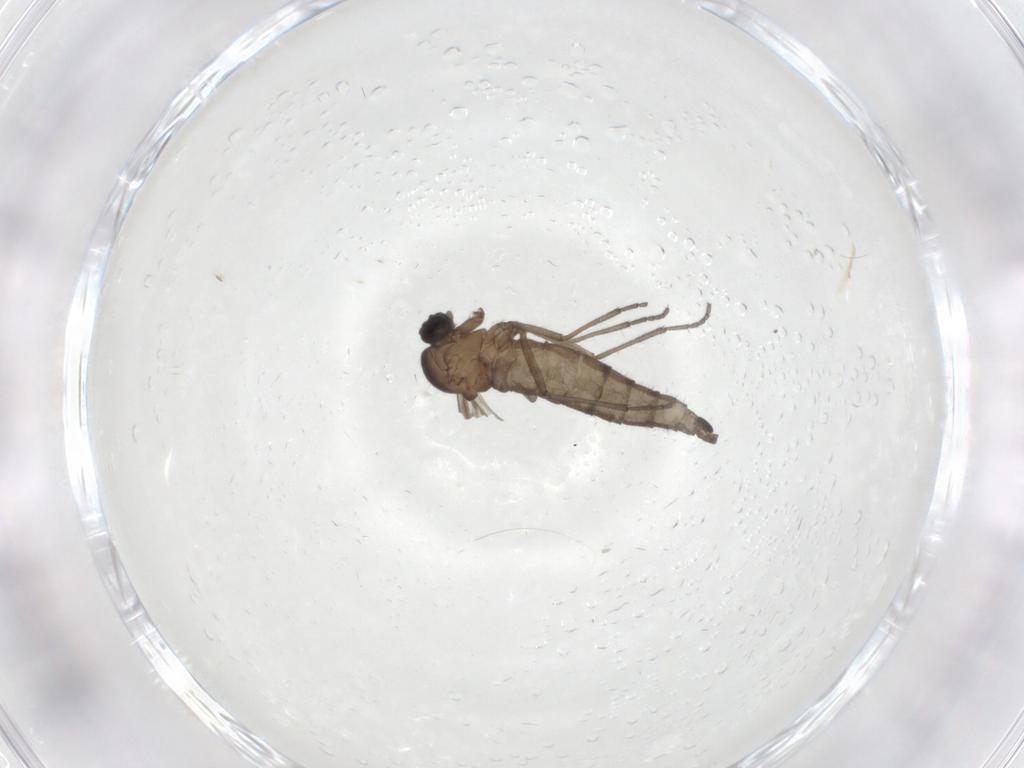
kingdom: Animalia
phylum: Arthropoda
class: Insecta
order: Diptera
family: Sciaridae
